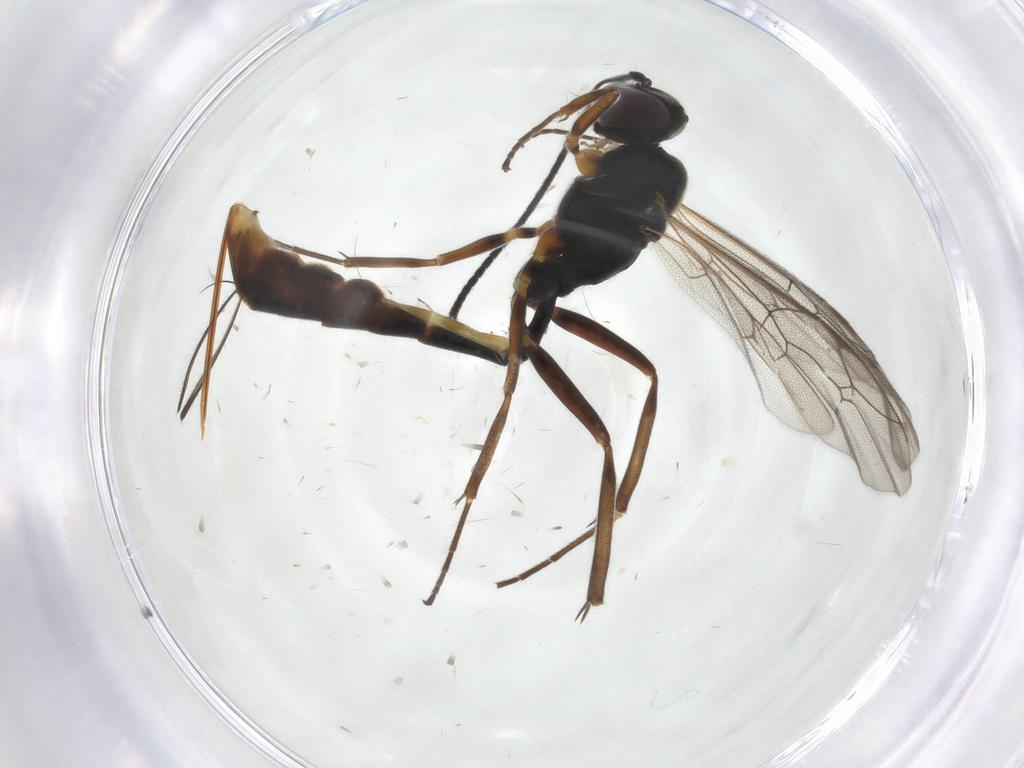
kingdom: Animalia
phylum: Arthropoda
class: Insecta
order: Hymenoptera
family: Ichneumonidae
